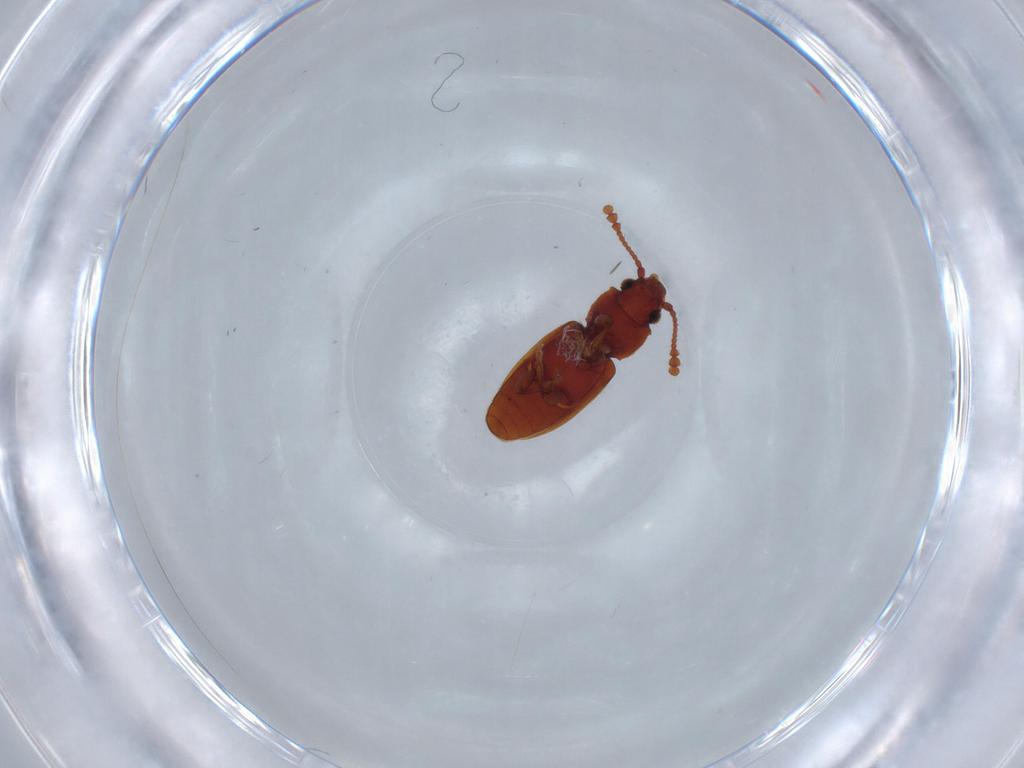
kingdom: Animalia
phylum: Arthropoda
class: Insecta
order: Coleoptera
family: Silvanidae
